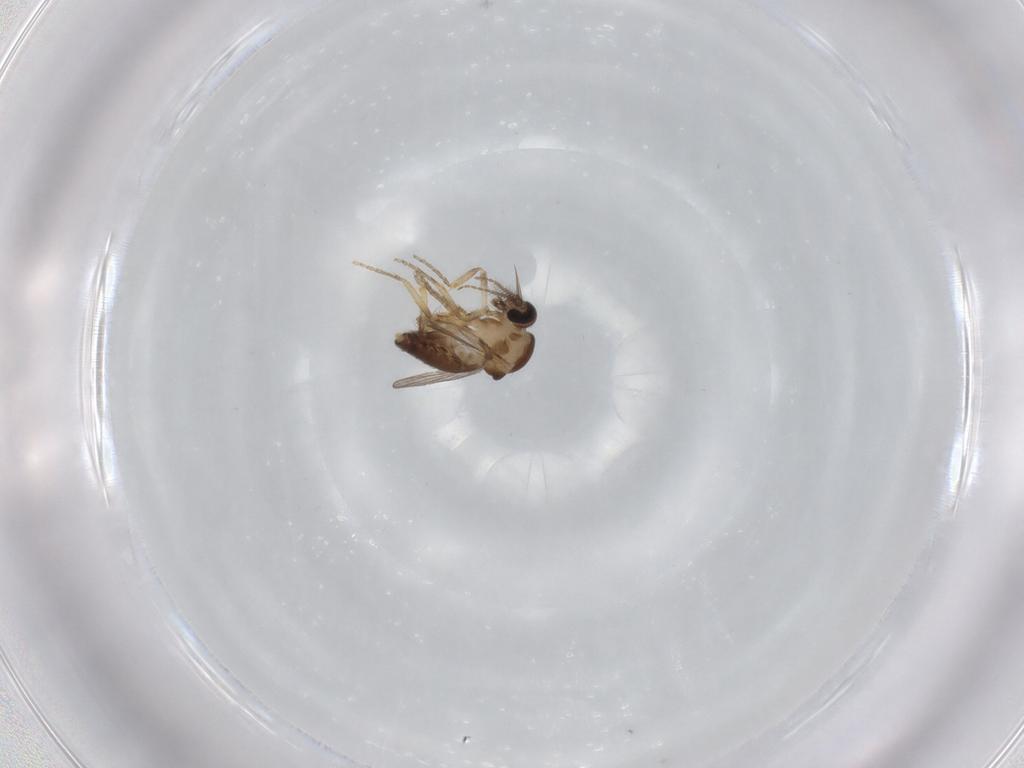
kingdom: Animalia
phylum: Arthropoda
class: Insecta
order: Diptera
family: Ceratopogonidae
